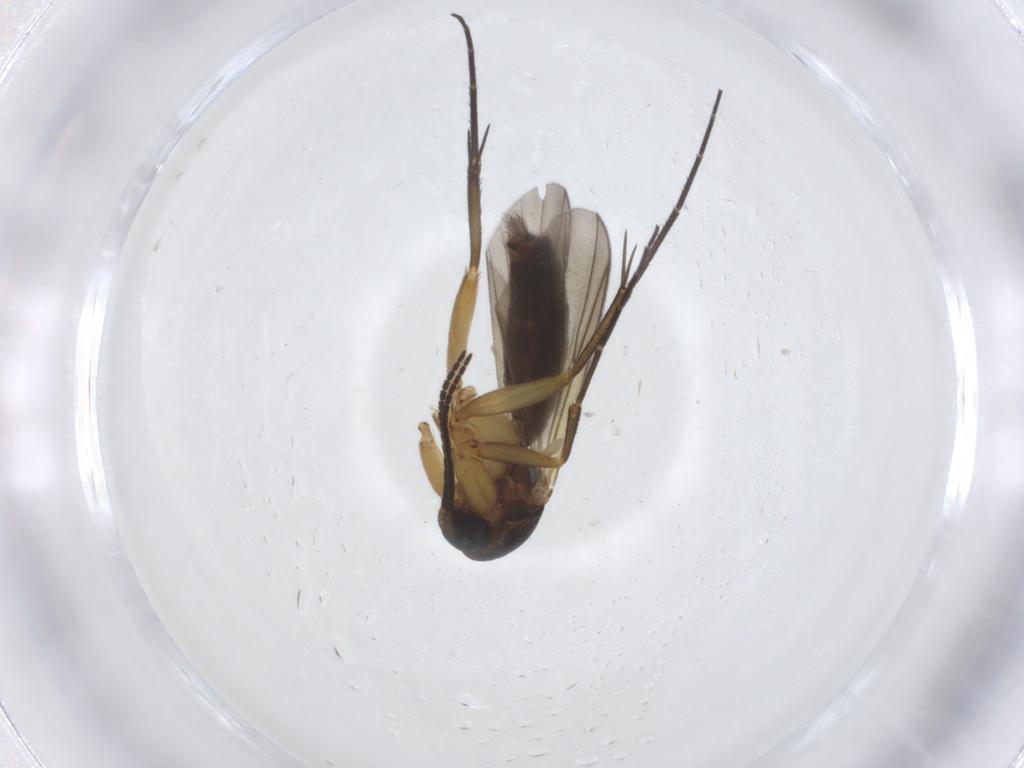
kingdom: Animalia
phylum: Arthropoda
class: Insecta
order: Diptera
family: Mycetophilidae
